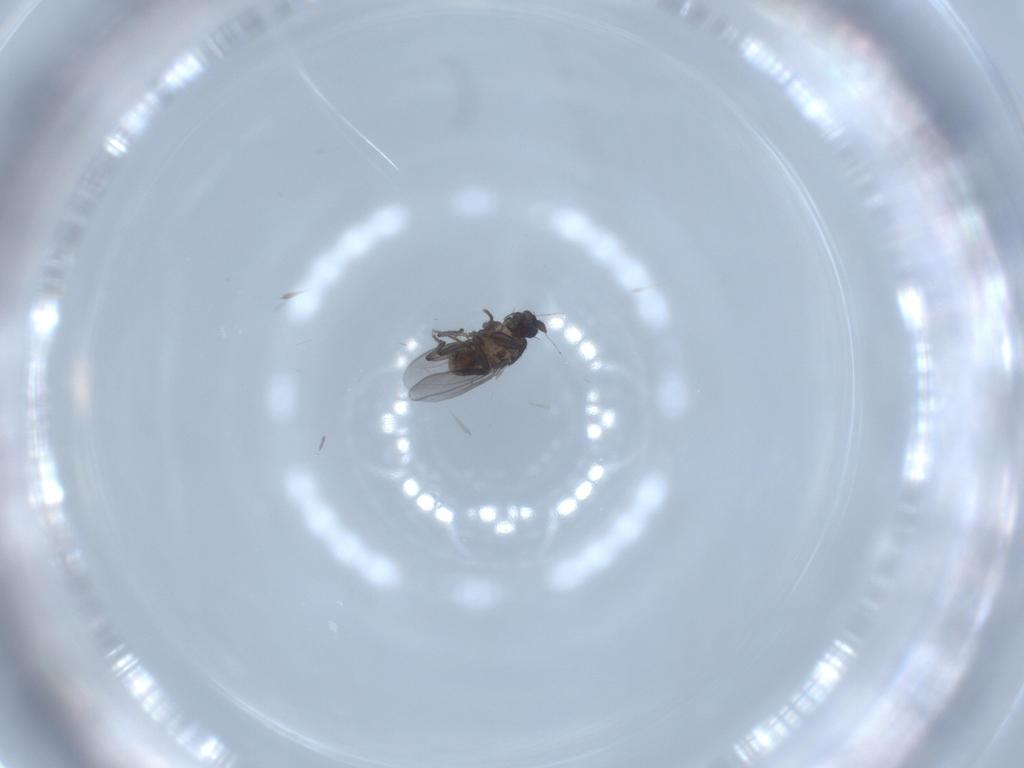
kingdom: Animalia
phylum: Arthropoda
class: Insecta
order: Diptera
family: Sphaeroceridae
